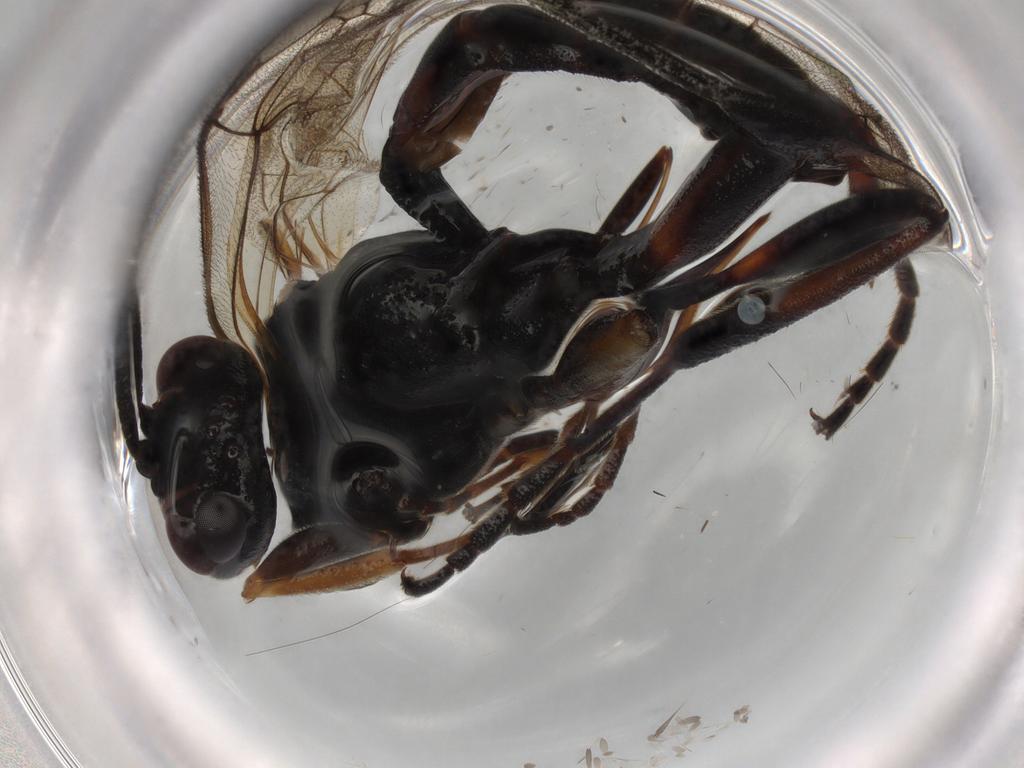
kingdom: Animalia
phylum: Arthropoda
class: Insecta
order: Hymenoptera
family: Ichneumonidae
